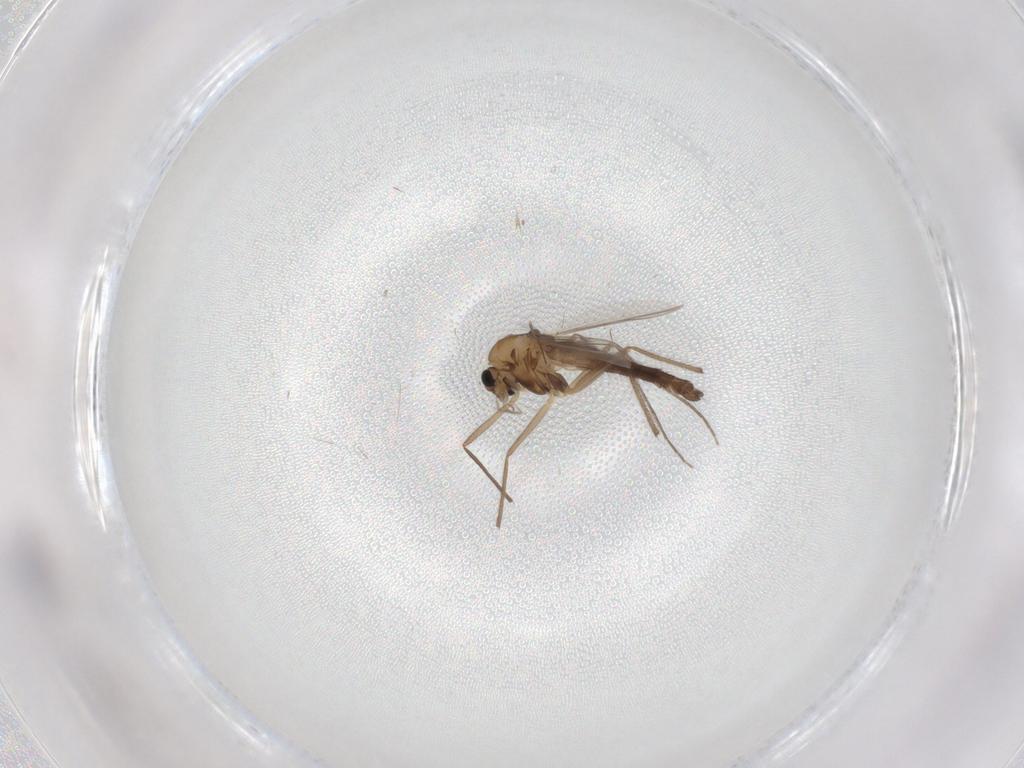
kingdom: Animalia
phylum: Arthropoda
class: Insecta
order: Diptera
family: Chironomidae
